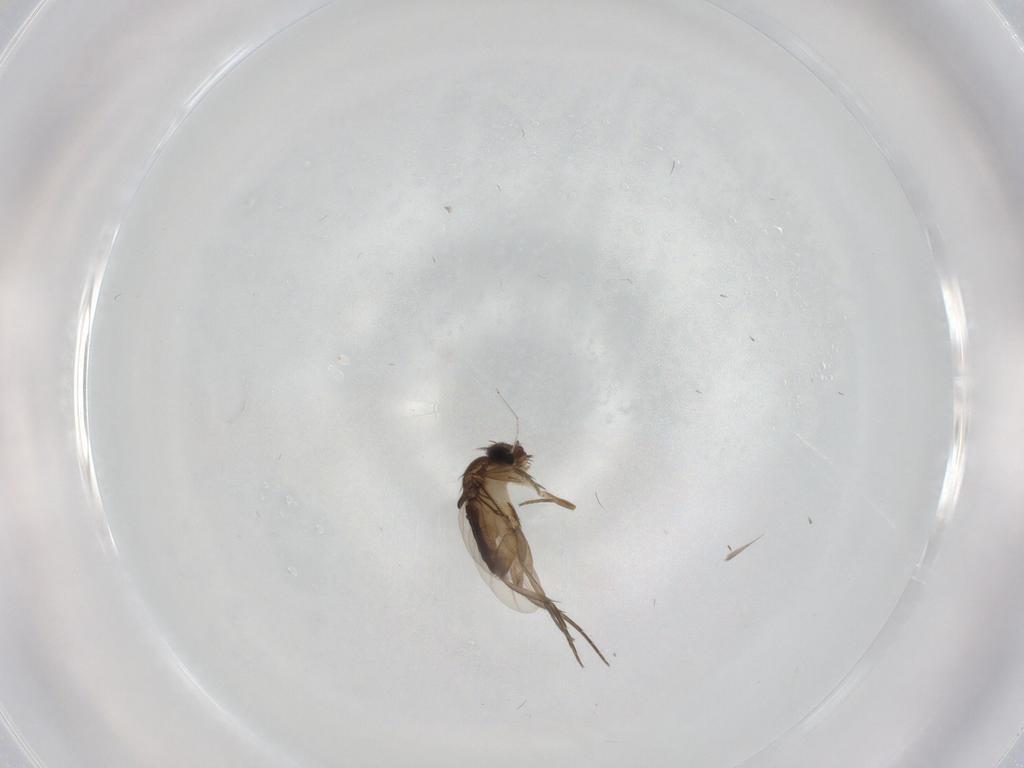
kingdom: Animalia
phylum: Arthropoda
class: Insecta
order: Diptera
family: Phoridae
